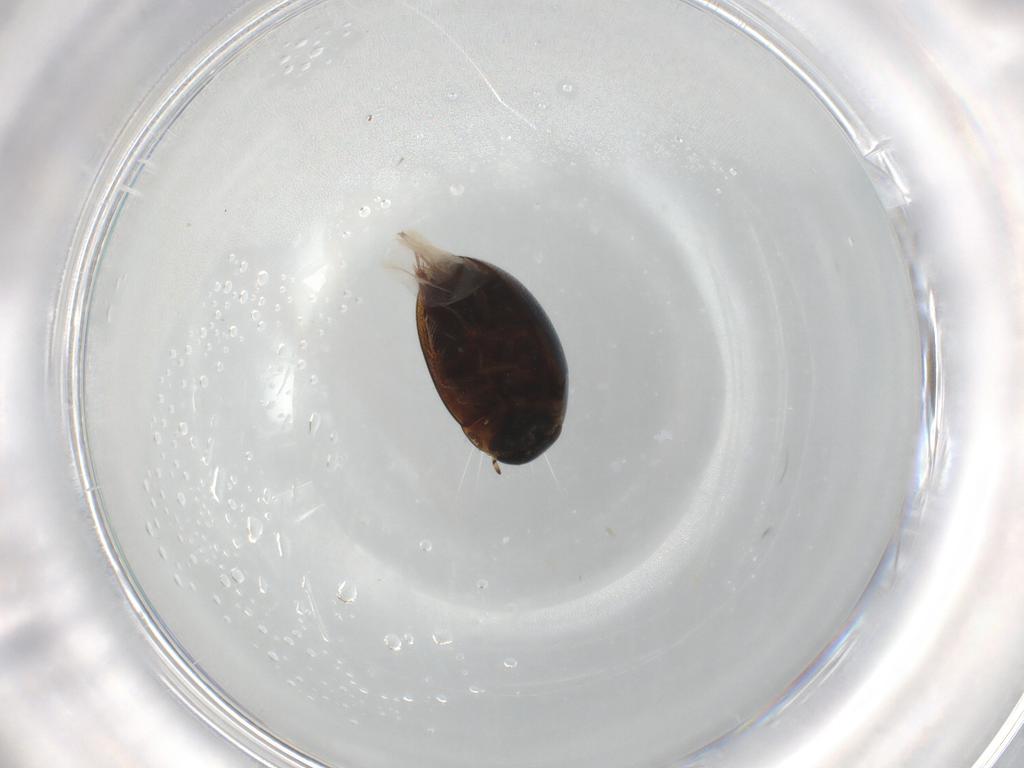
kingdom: Animalia
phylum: Arthropoda
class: Insecta
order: Coleoptera
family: Hydrophilidae
